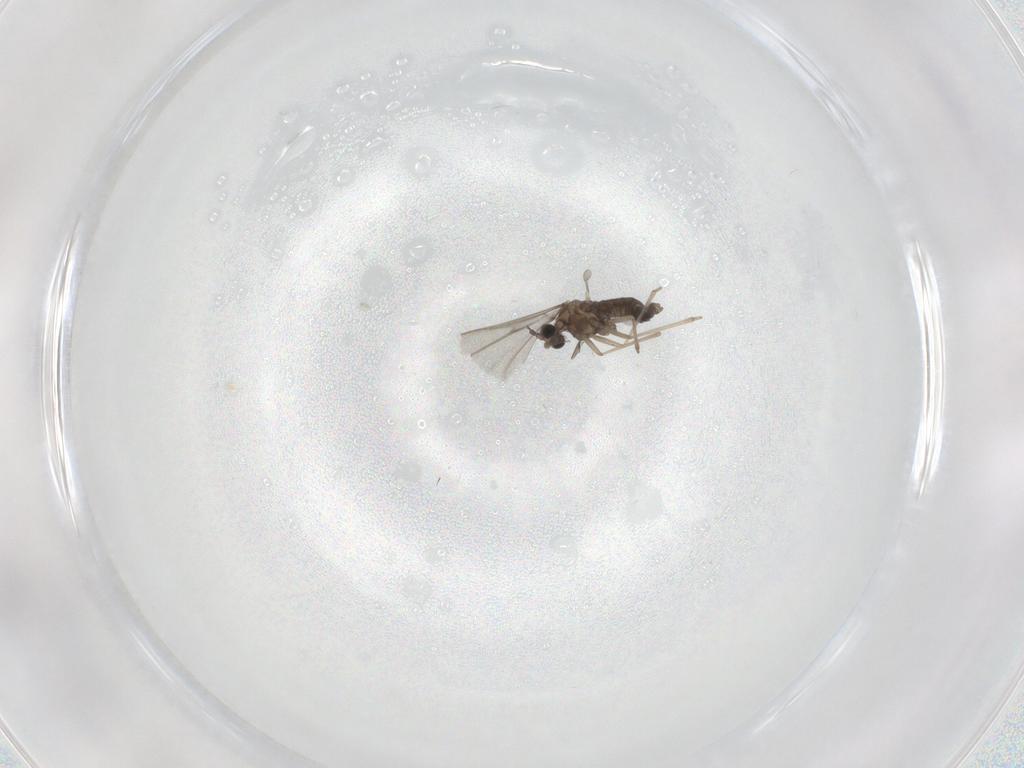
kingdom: Animalia
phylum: Arthropoda
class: Insecta
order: Diptera
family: Cecidomyiidae
